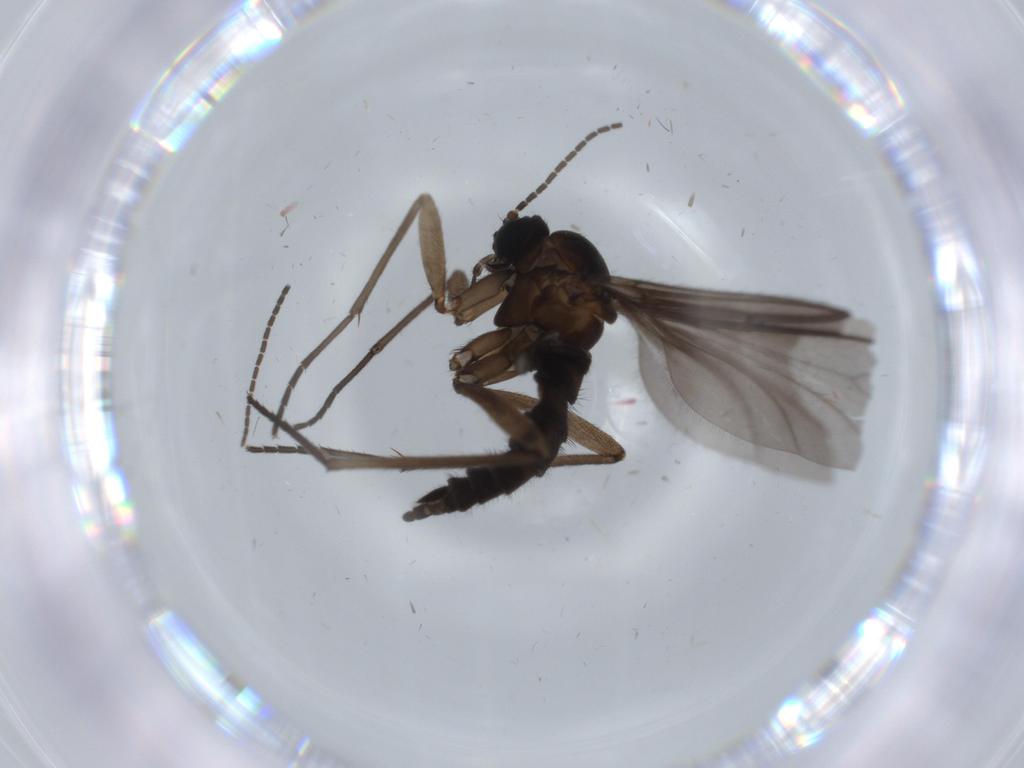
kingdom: Animalia
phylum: Arthropoda
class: Insecta
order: Diptera
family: Sciaridae
